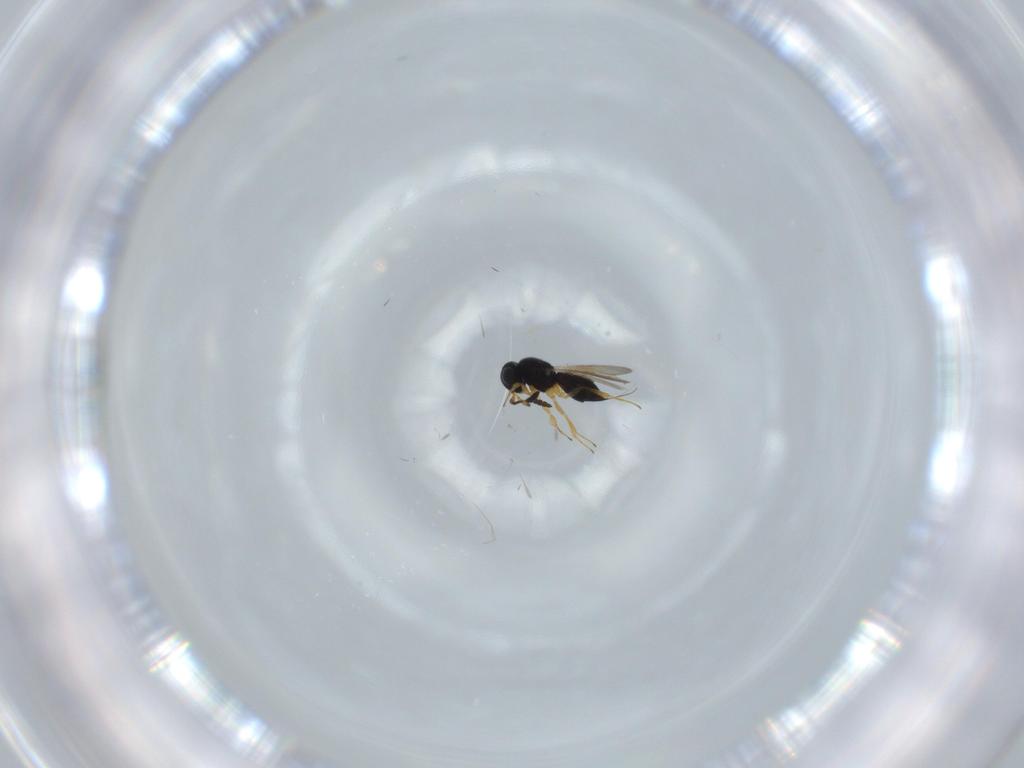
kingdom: Animalia
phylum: Arthropoda
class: Insecta
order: Hymenoptera
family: Scelionidae
